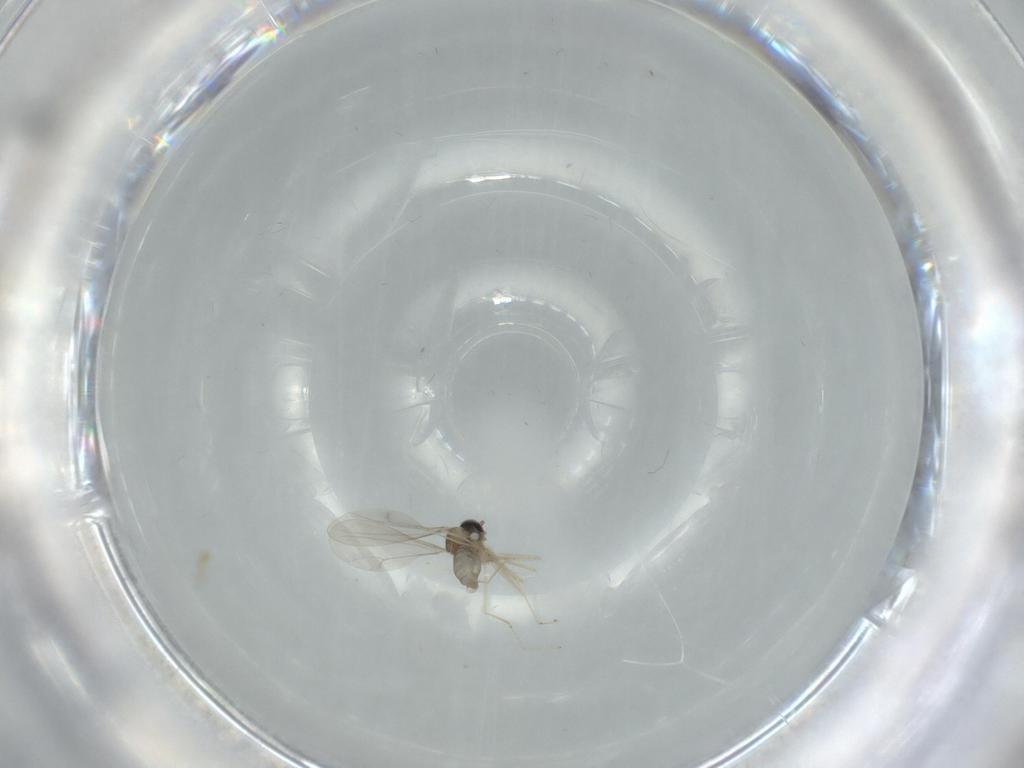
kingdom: Animalia
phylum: Arthropoda
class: Insecta
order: Diptera
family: Cecidomyiidae
